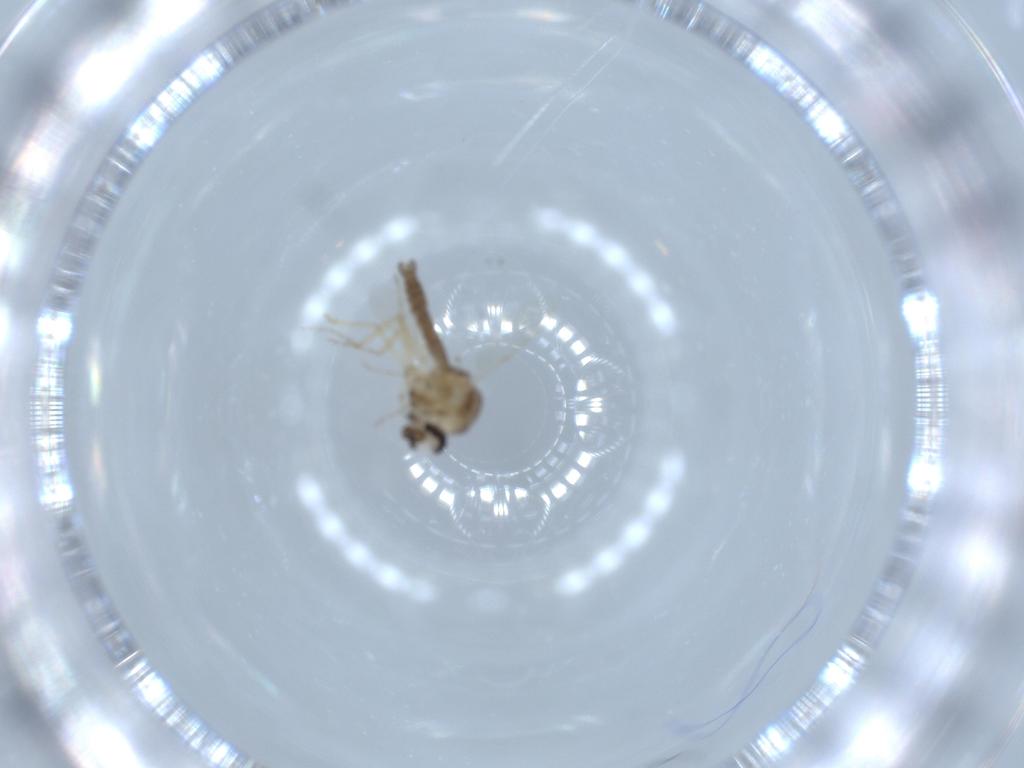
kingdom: Animalia
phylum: Arthropoda
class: Insecta
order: Diptera
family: Ceratopogonidae
